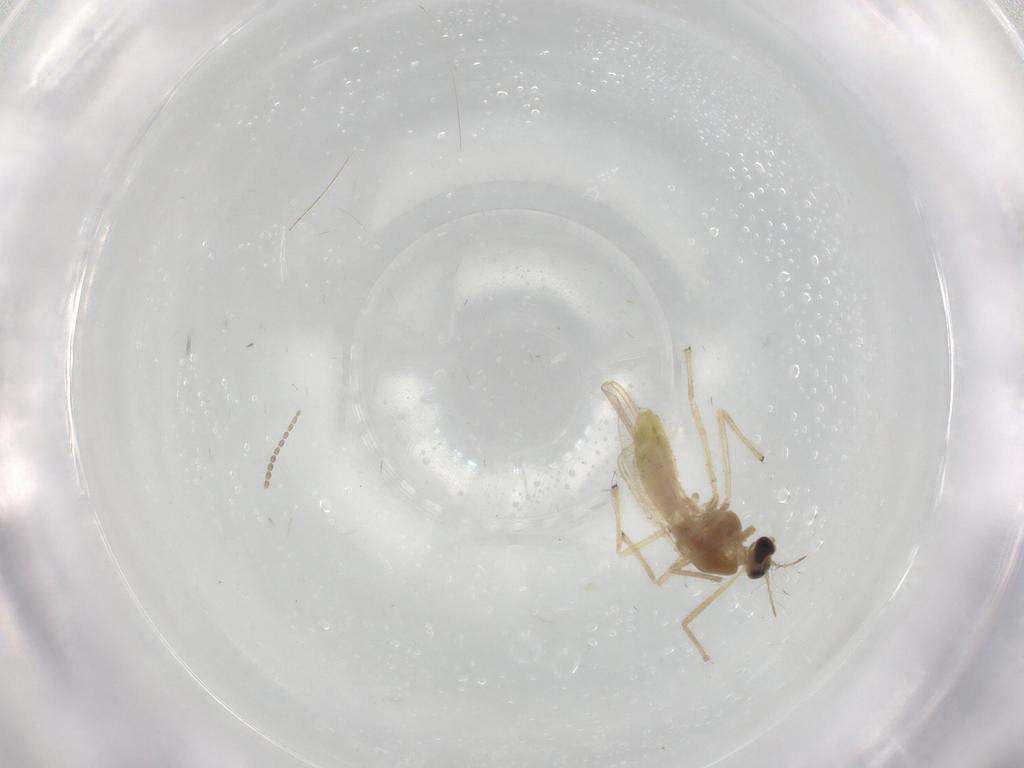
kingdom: Animalia
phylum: Arthropoda
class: Insecta
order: Diptera
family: Chironomidae
